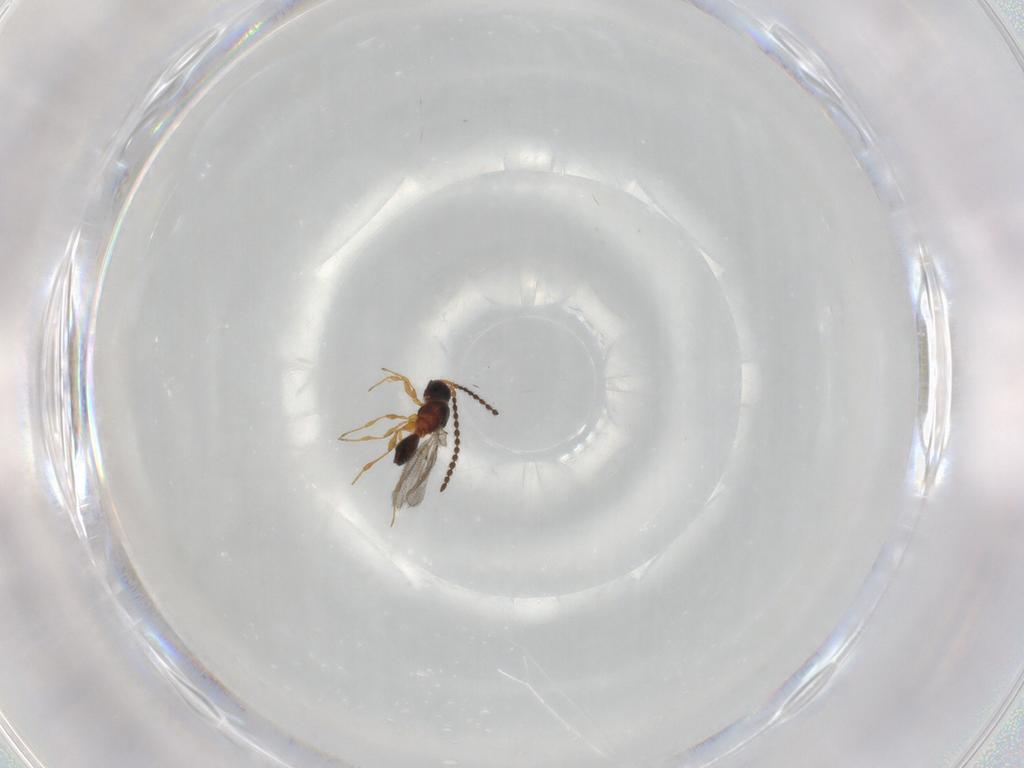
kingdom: Animalia
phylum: Arthropoda
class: Insecta
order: Hymenoptera
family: Diapriidae
